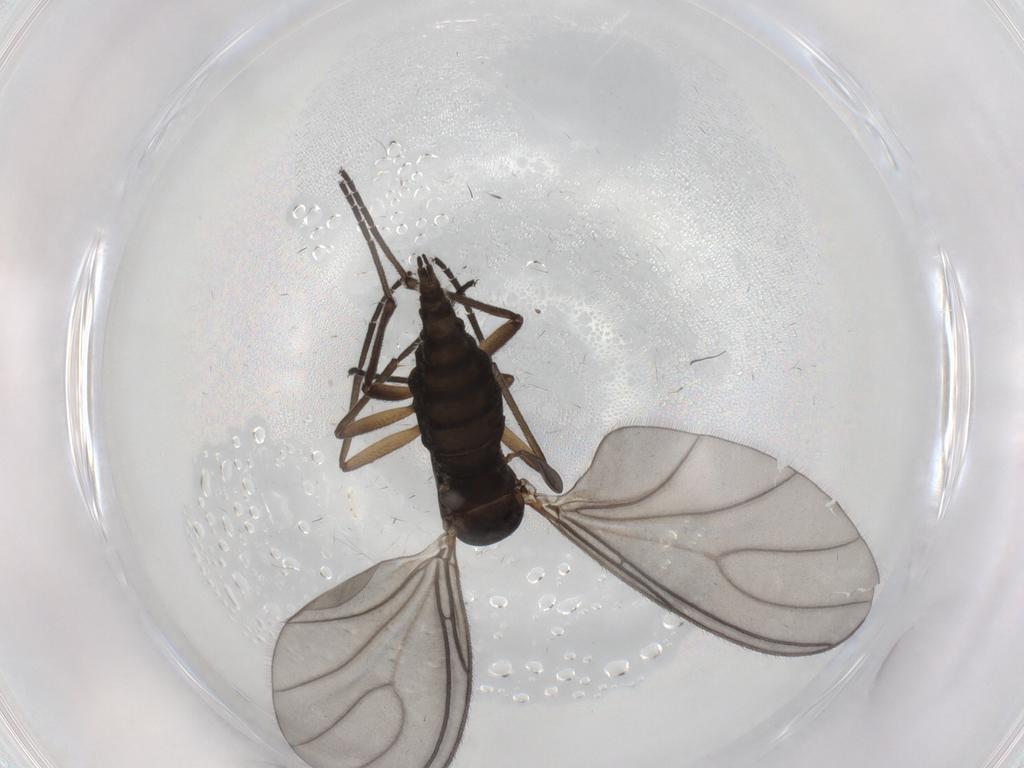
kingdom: Animalia
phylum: Arthropoda
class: Insecta
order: Diptera
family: Sciaridae
